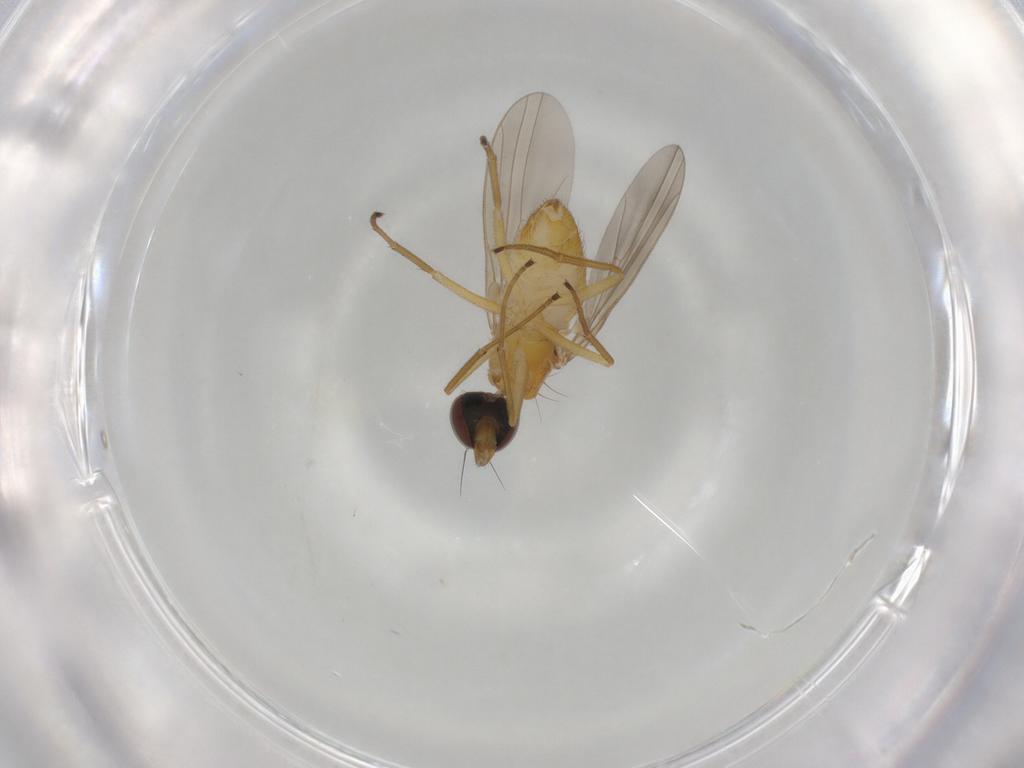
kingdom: Animalia
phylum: Arthropoda
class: Insecta
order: Diptera
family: Dolichopodidae
